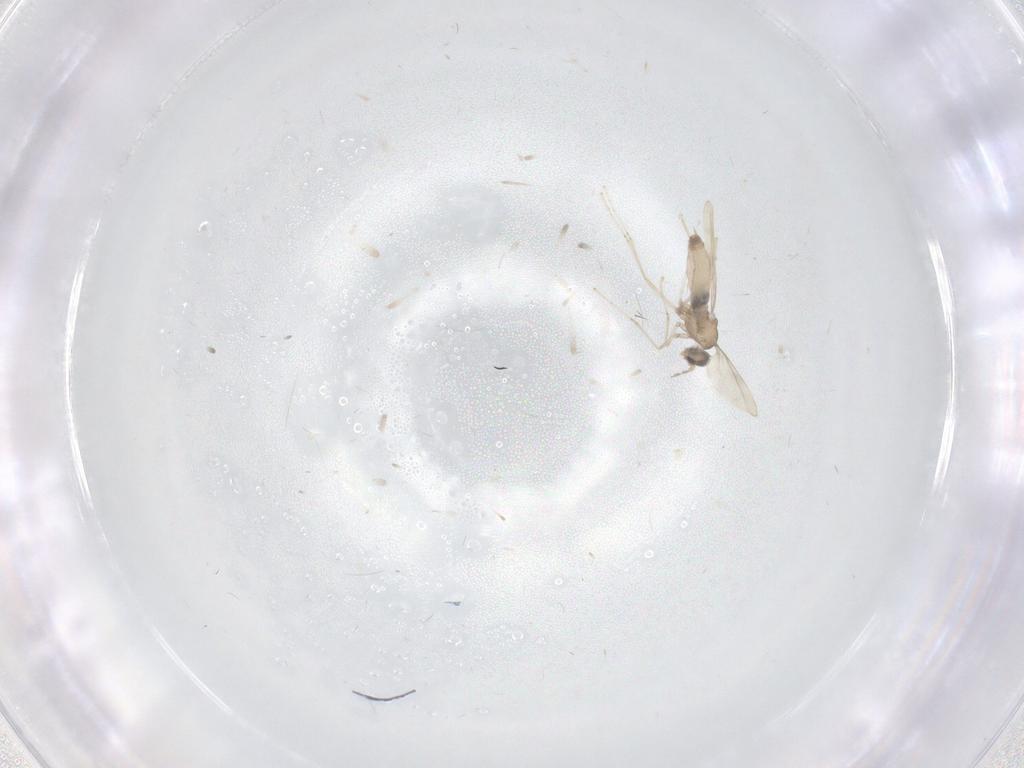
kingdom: Animalia
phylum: Arthropoda
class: Insecta
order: Diptera
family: Cecidomyiidae
